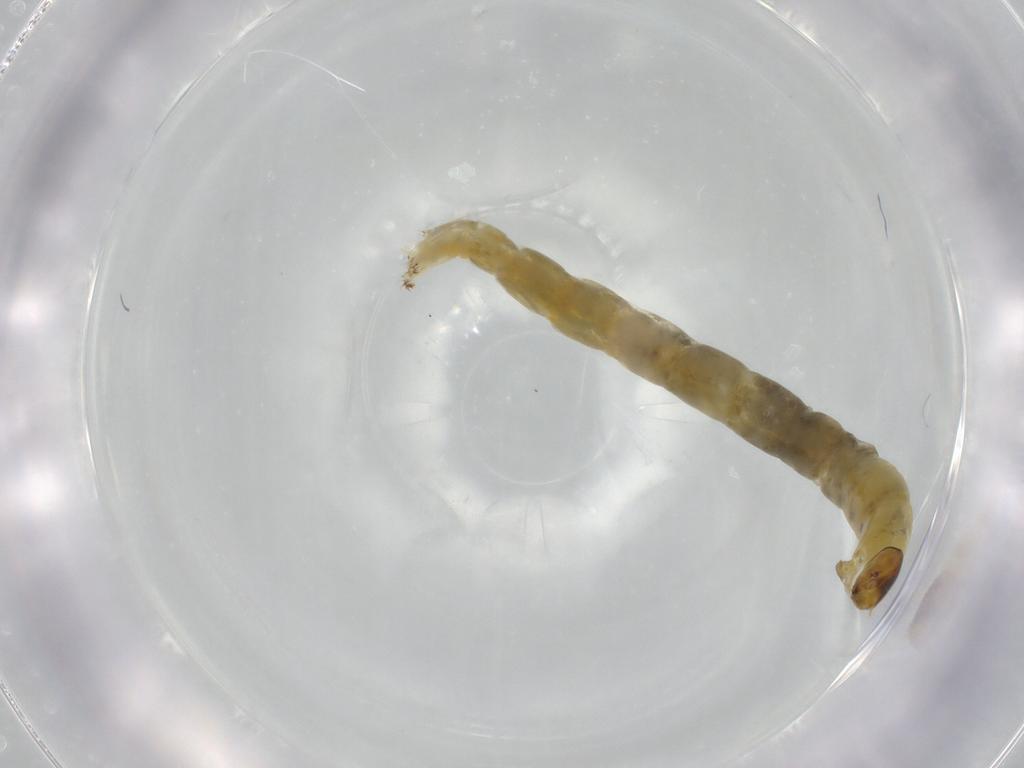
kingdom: Animalia
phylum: Arthropoda
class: Insecta
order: Diptera
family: Chironomidae
